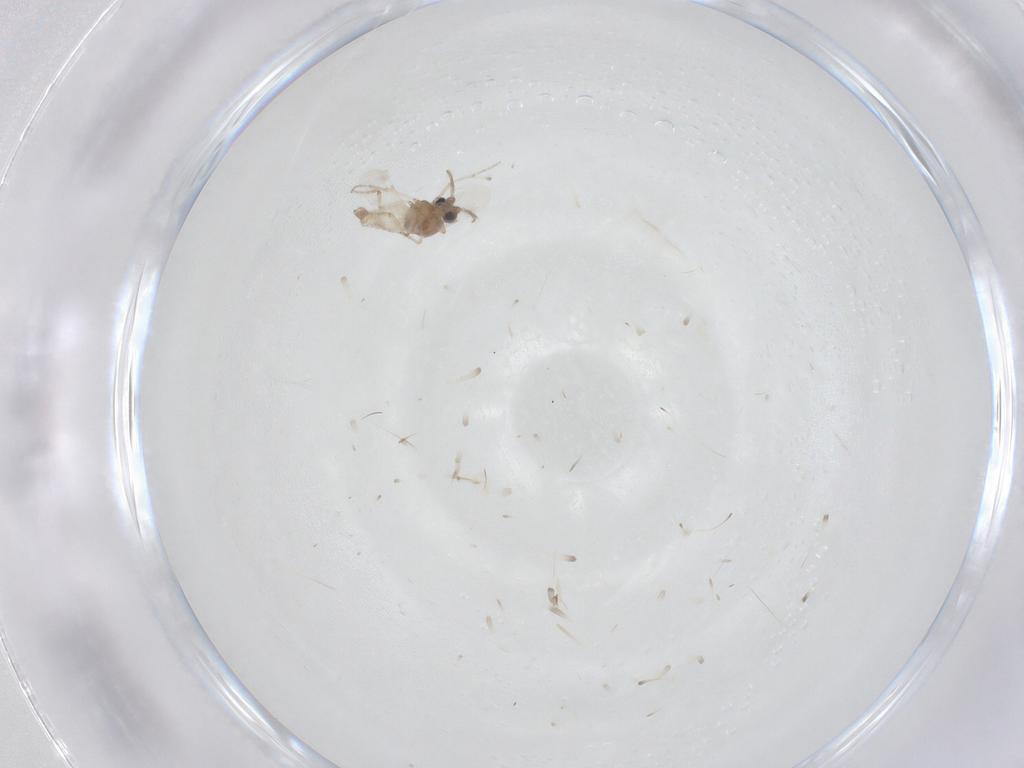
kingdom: Animalia
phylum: Arthropoda
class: Insecta
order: Diptera
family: Ceratopogonidae
